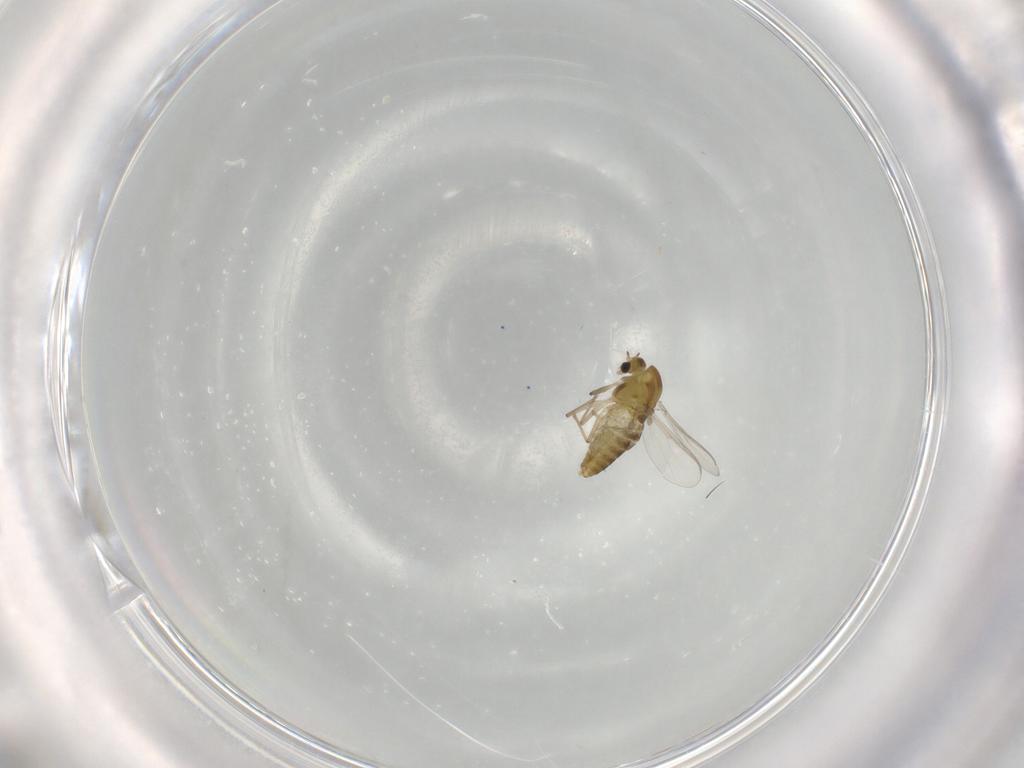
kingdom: Animalia
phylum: Arthropoda
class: Insecta
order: Diptera
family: Chironomidae
